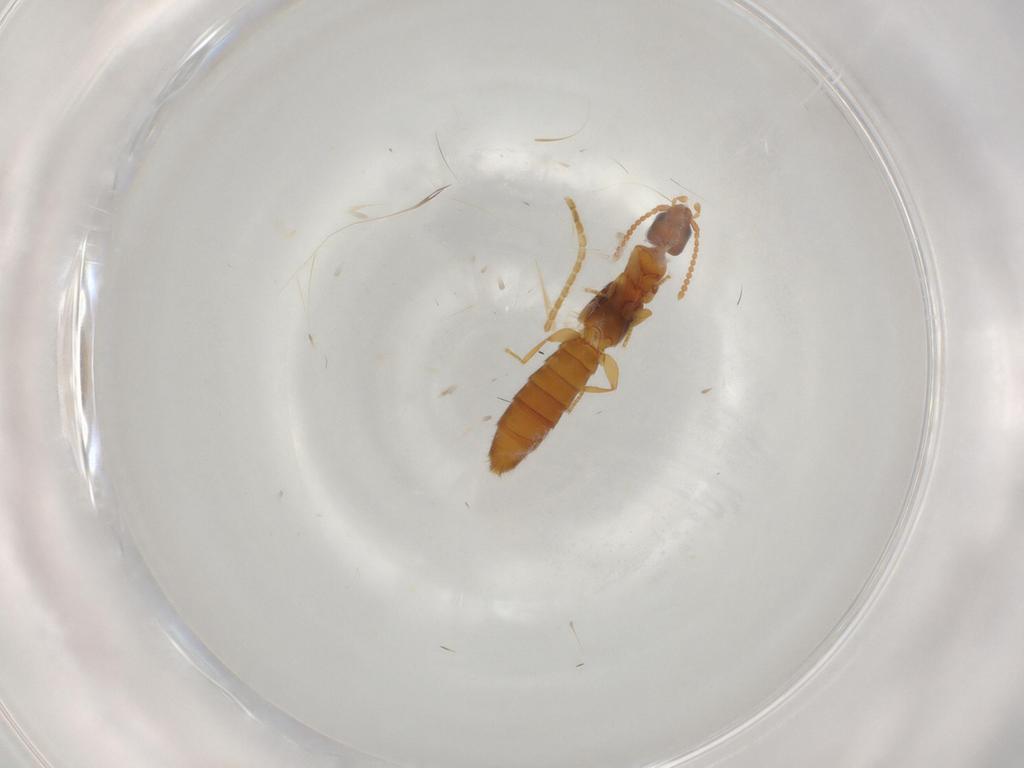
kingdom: Animalia
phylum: Arthropoda
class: Insecta
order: Coleoptera
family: Staphylinidae
